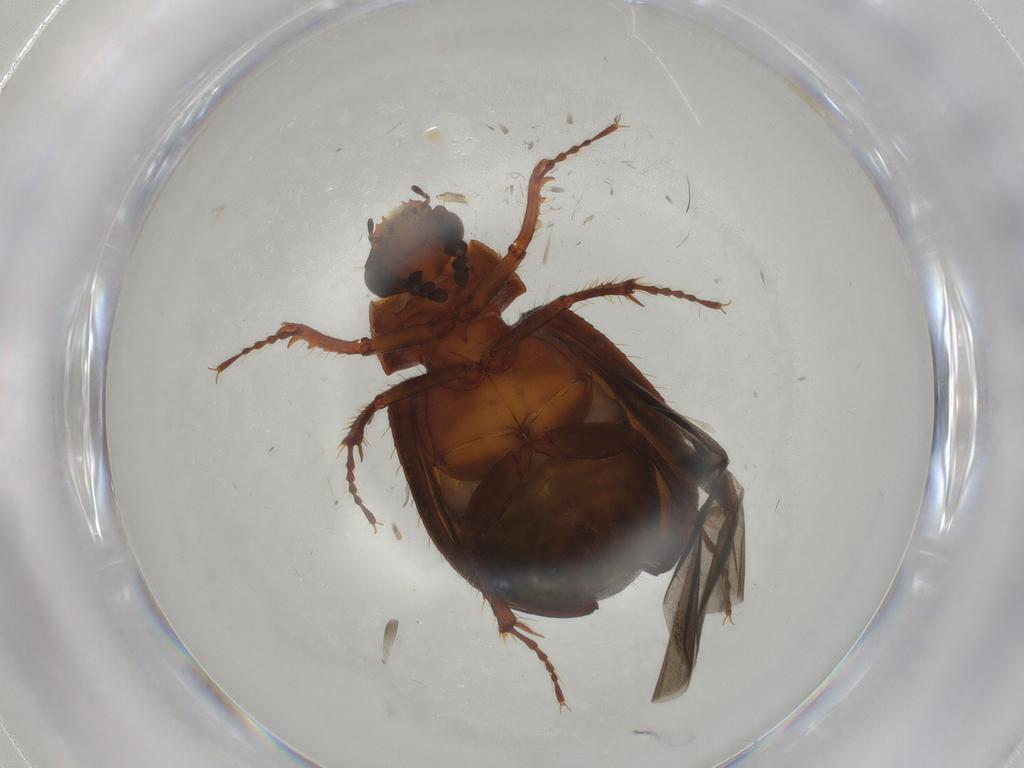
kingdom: Animalia
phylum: Arthropoda
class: Insecta
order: Coleoptera
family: Hybosoridae
